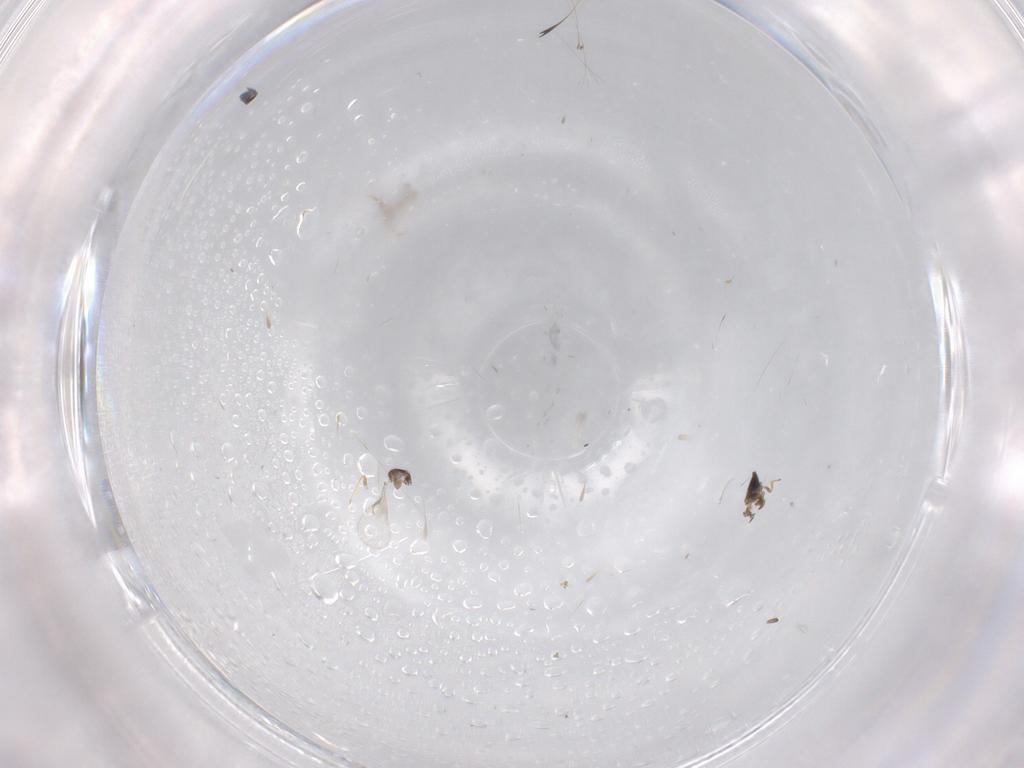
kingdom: Animalia
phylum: Arthropoda
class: Insecta
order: Hymenoptera
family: Trichogrammatidae
